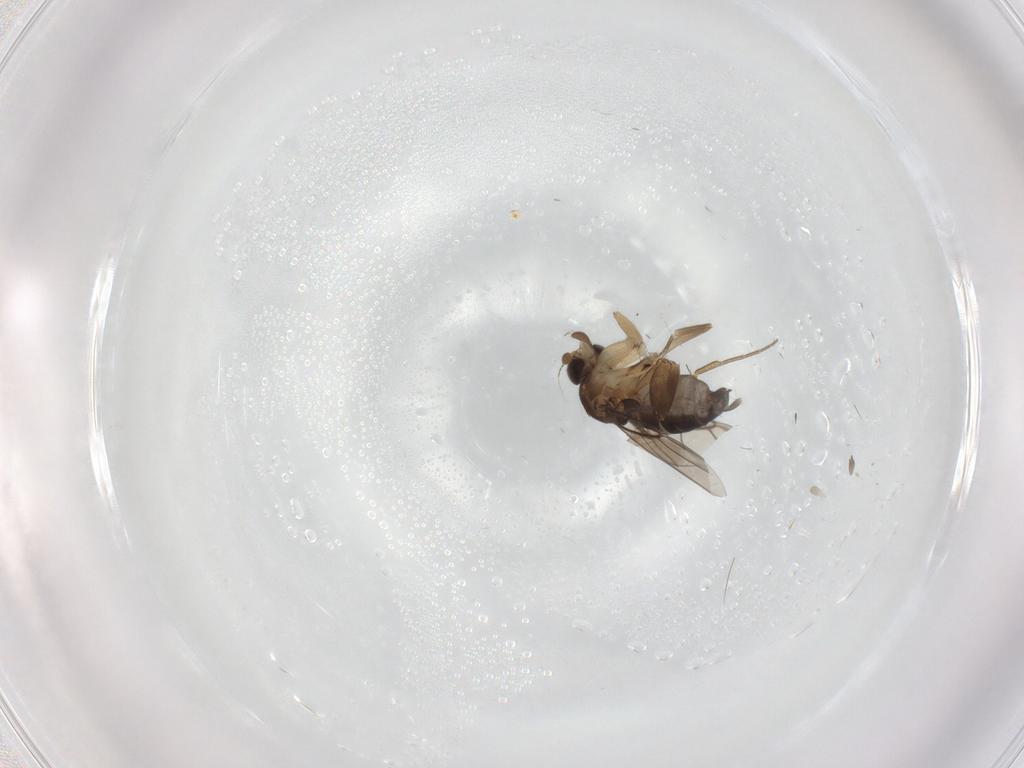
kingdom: Animalia
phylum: Arthropoda
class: Insecta
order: Diptera
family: Phoridae
